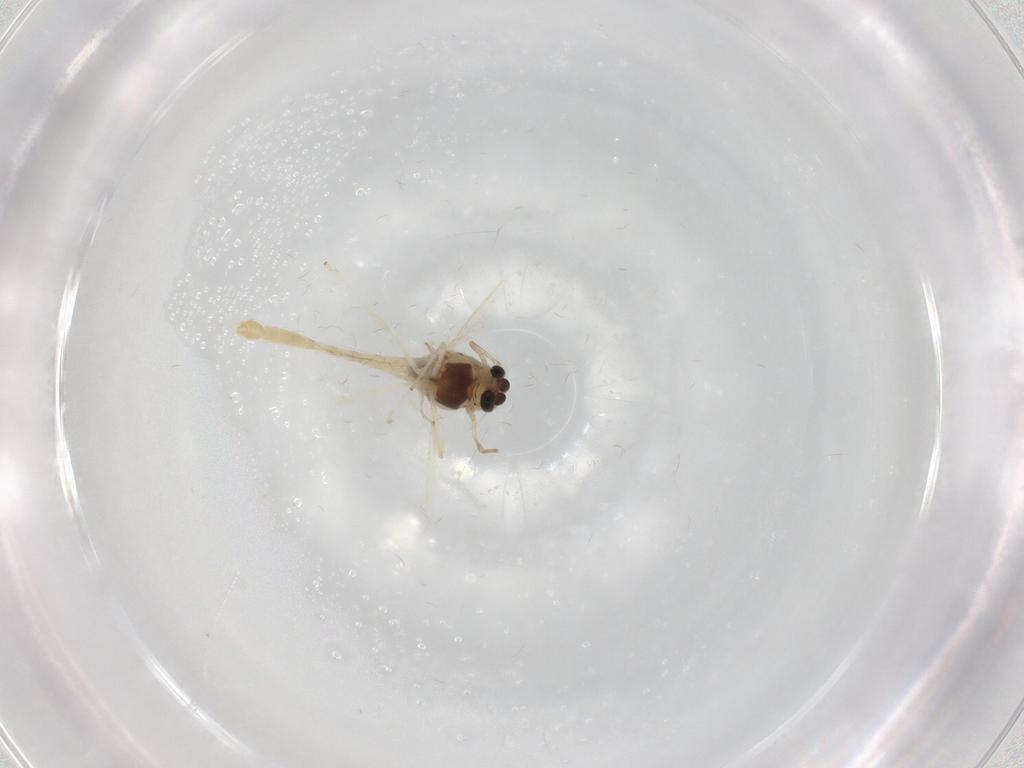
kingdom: Animalia
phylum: Arthropoda
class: Insecta
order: Diptera
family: Chironomidae
